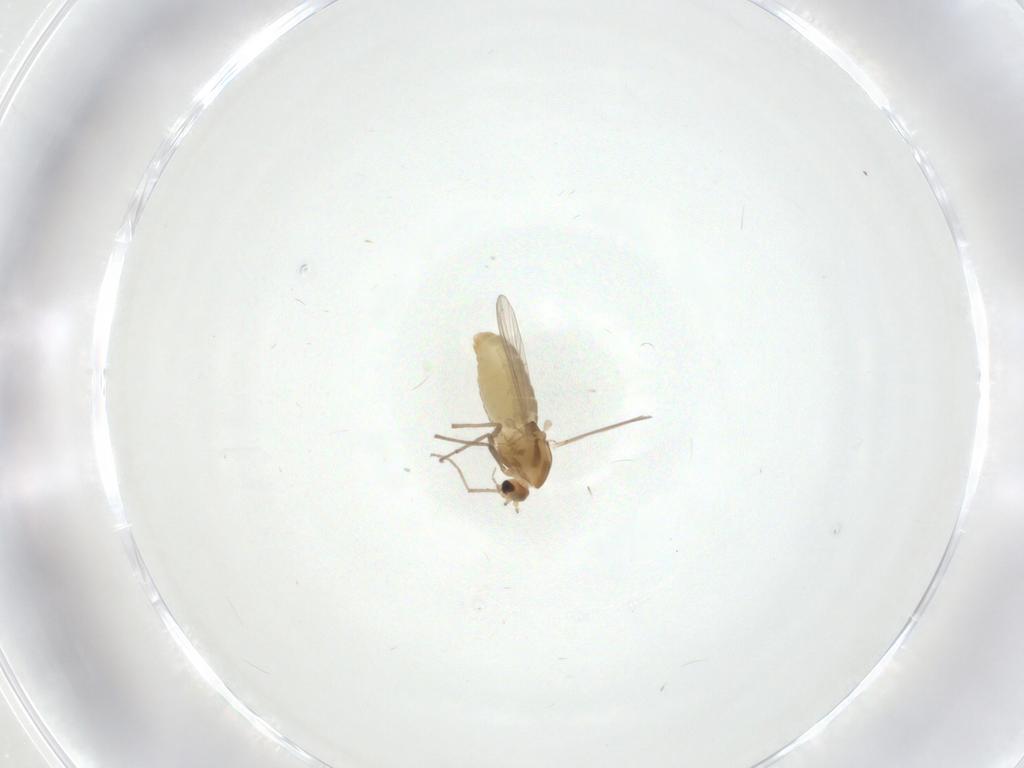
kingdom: Animalia
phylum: Arthropoda
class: Insecta
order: Diptera
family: Chironomidae
